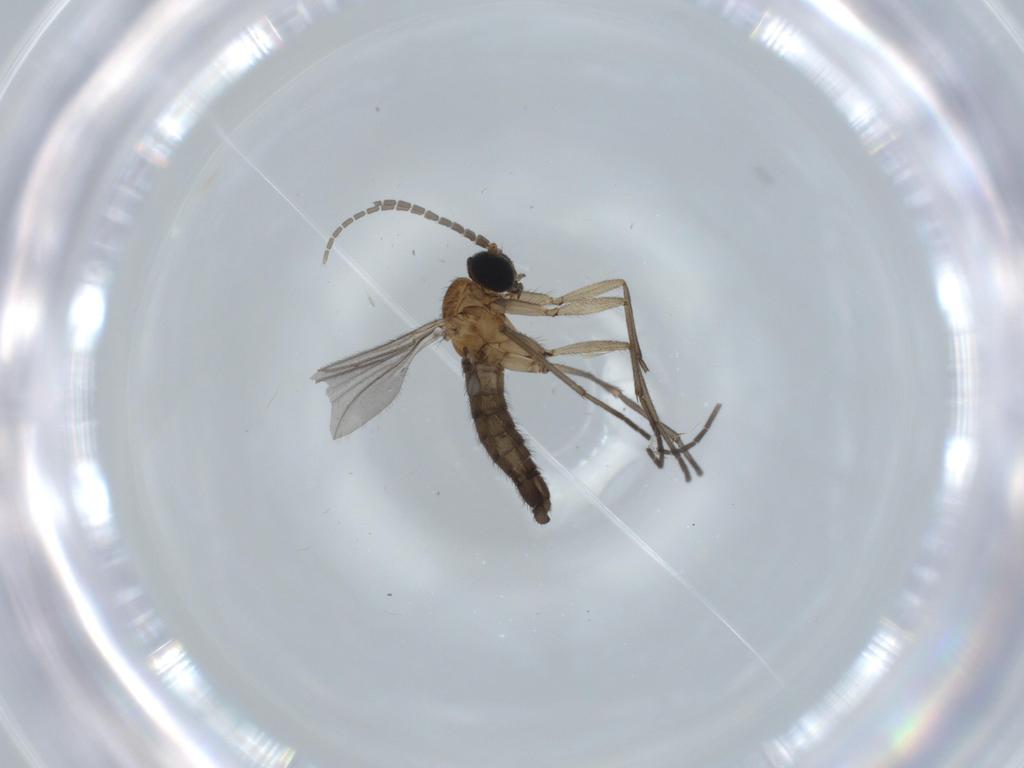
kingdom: Animalia
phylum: Arthropoda
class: Insecta
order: Diptera
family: Sciaridae
